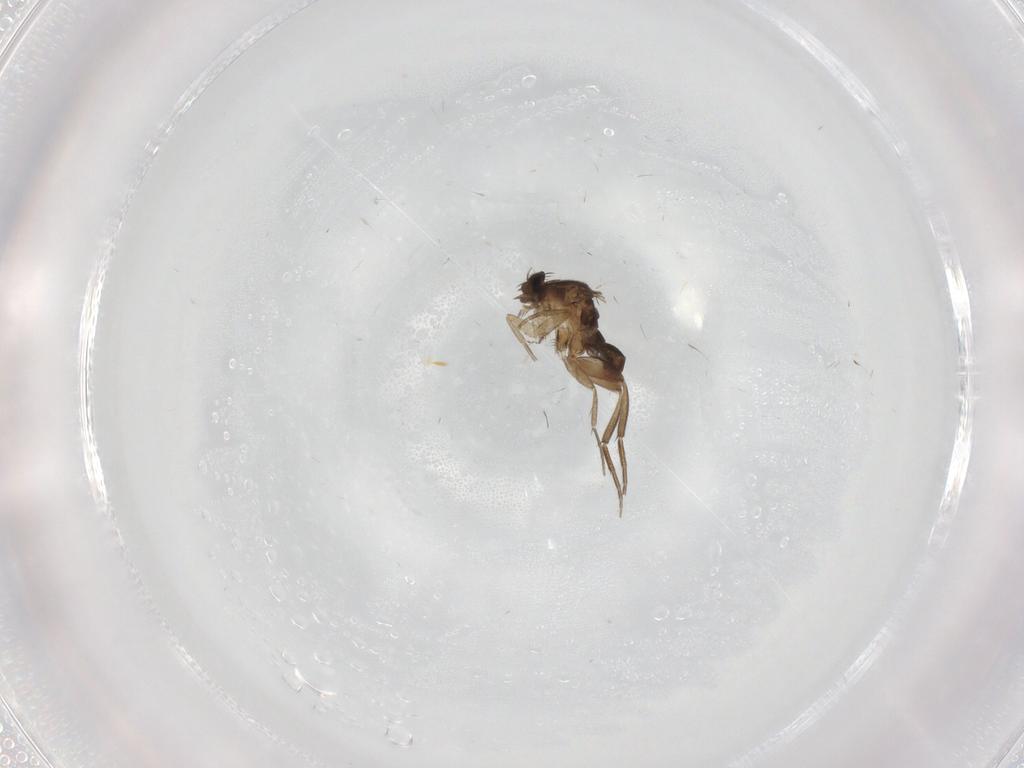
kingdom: Animalia
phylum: Arthropoda
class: Insecta
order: Diptera
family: Phoridae
